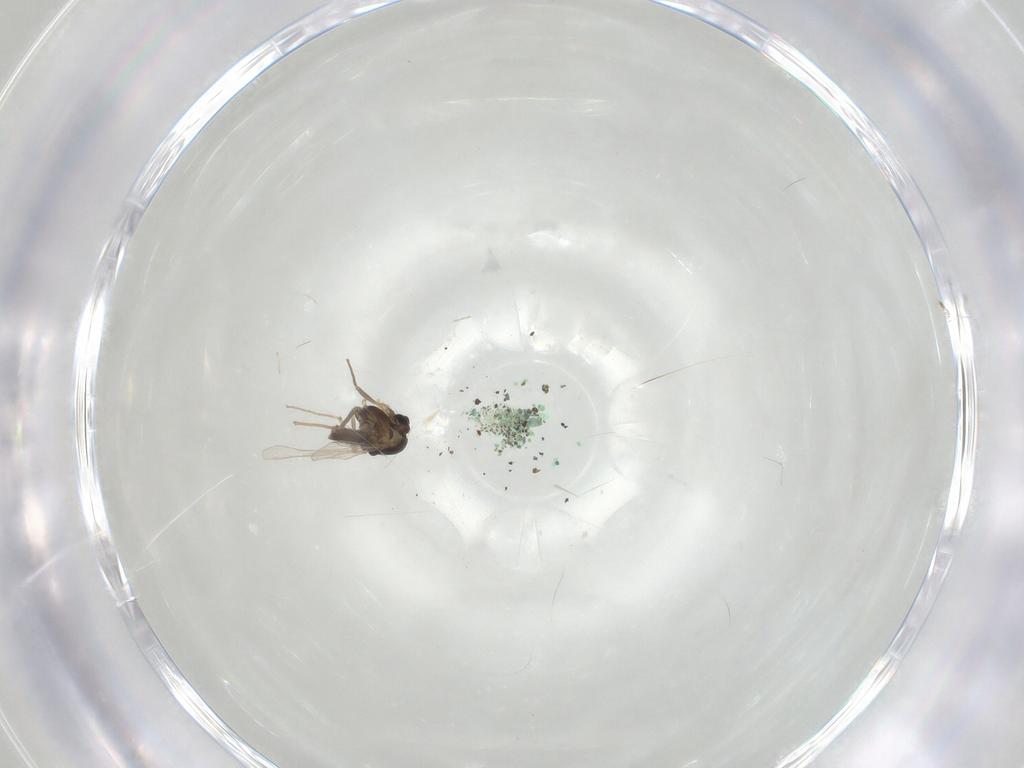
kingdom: Animalia
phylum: Arthropoda
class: Insecta
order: Diptera
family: Chironomidae
